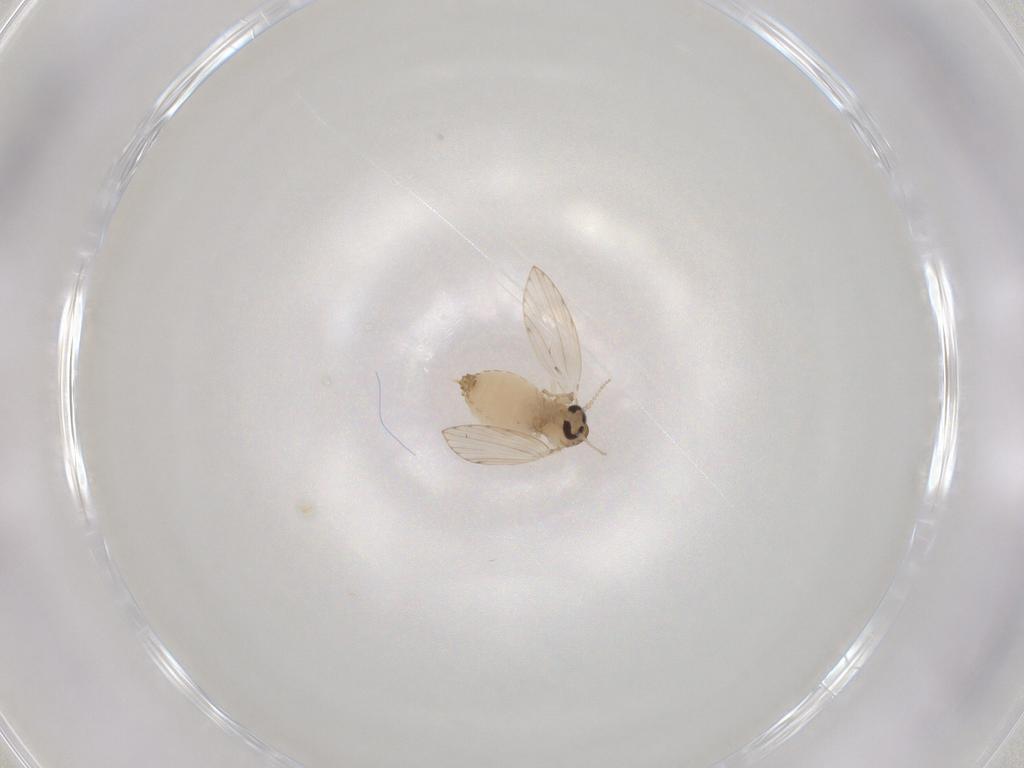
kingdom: Animalia
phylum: Arthropoda
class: Insecta
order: Diptera
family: Psychodidae
